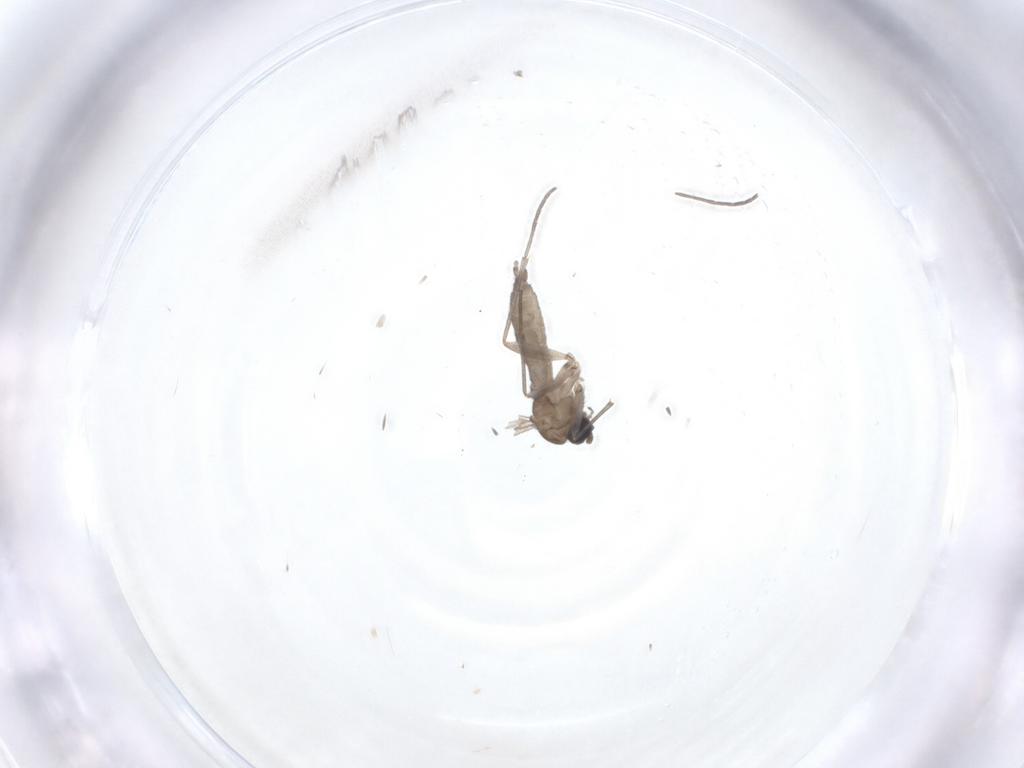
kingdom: Animalia
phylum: Arthropoda
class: Insecta
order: Diptera
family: Sciaridae
